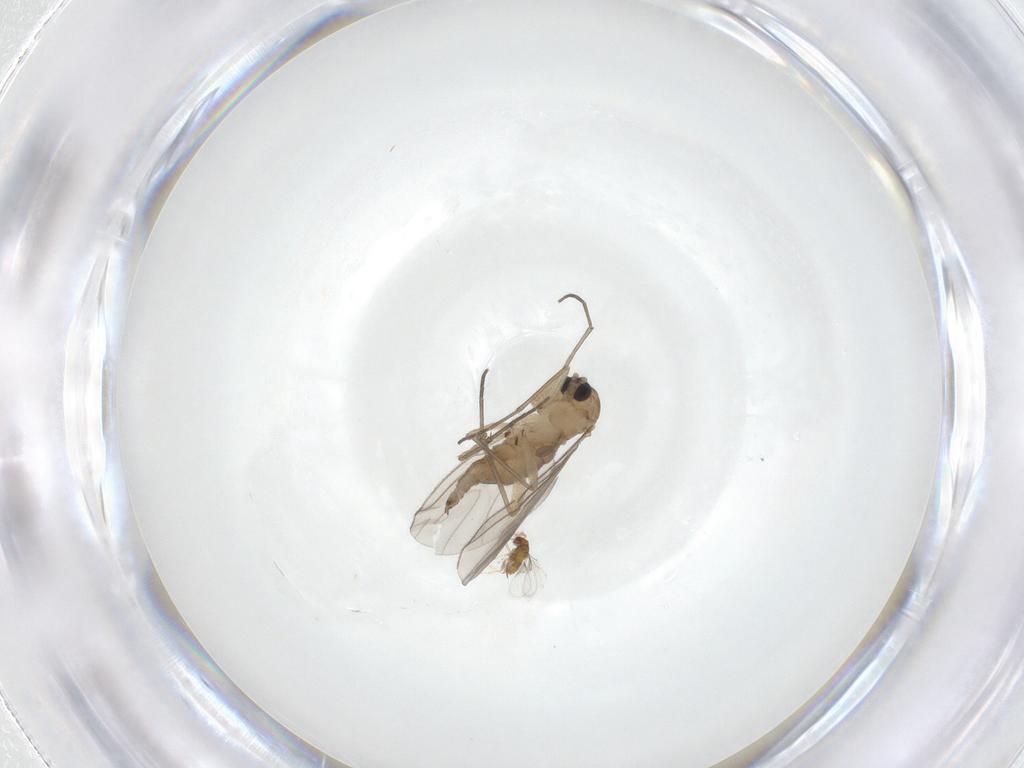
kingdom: Animalia
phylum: Arthropoda
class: Insecta
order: Diptera
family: Sciaridae
